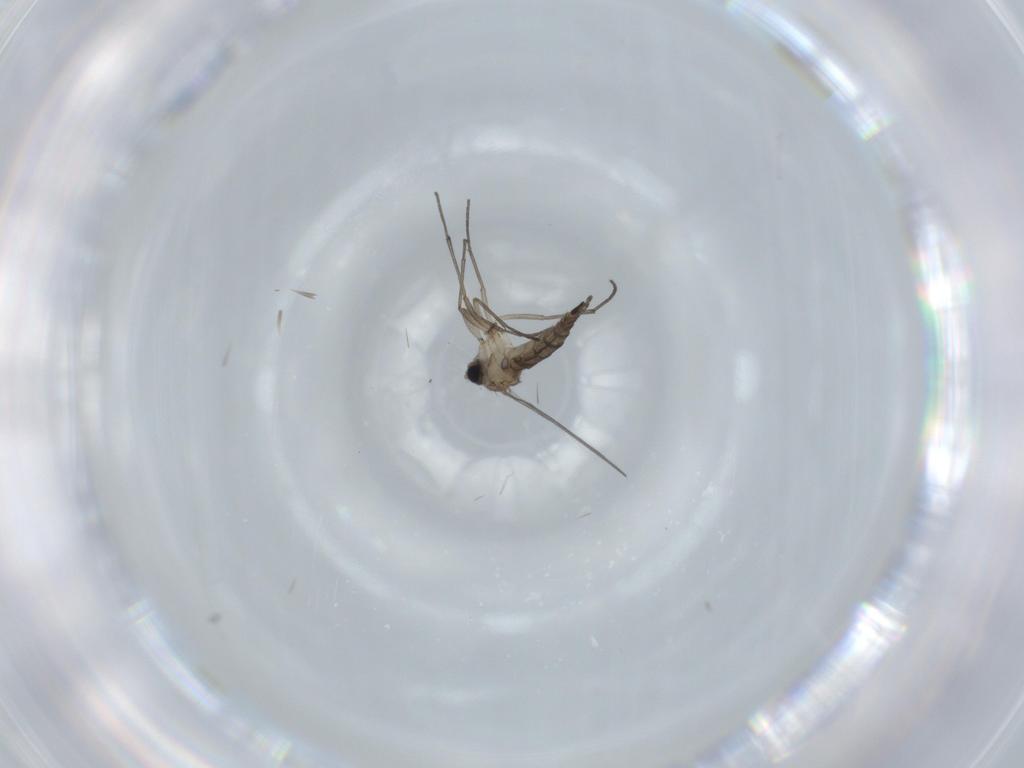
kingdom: Animalia
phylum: Arthropoda
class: Insecta
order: Diptera
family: Sciaridae
